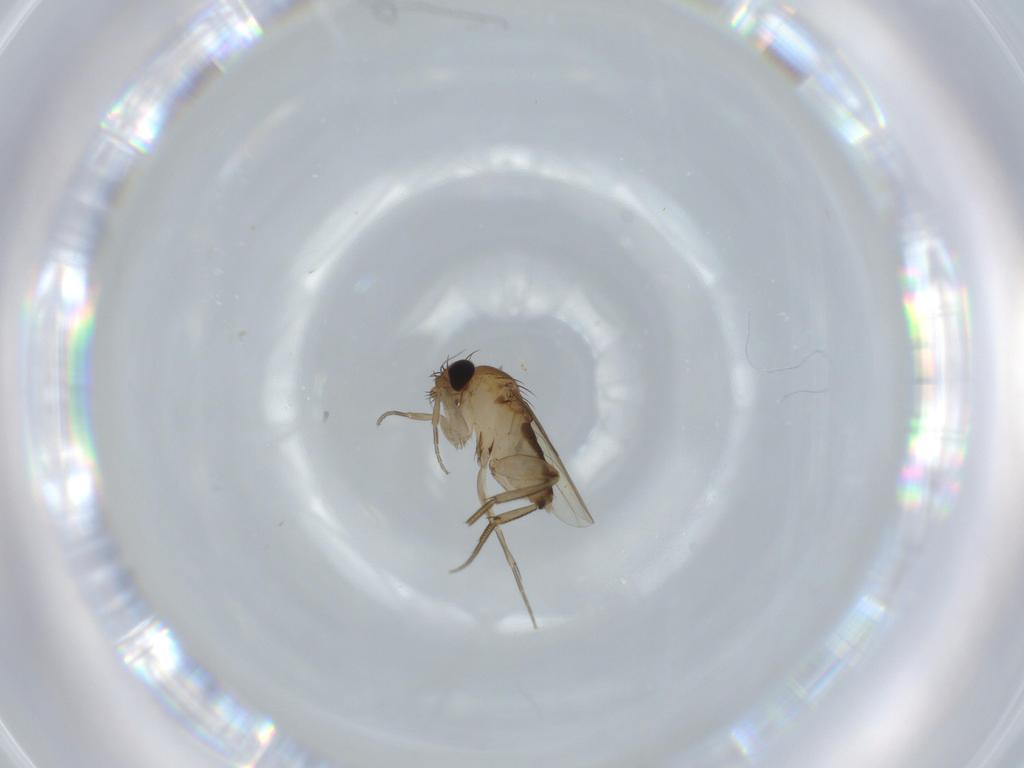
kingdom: Animalia
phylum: Arthropoda
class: Insecta
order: Diptera
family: Phoridae
